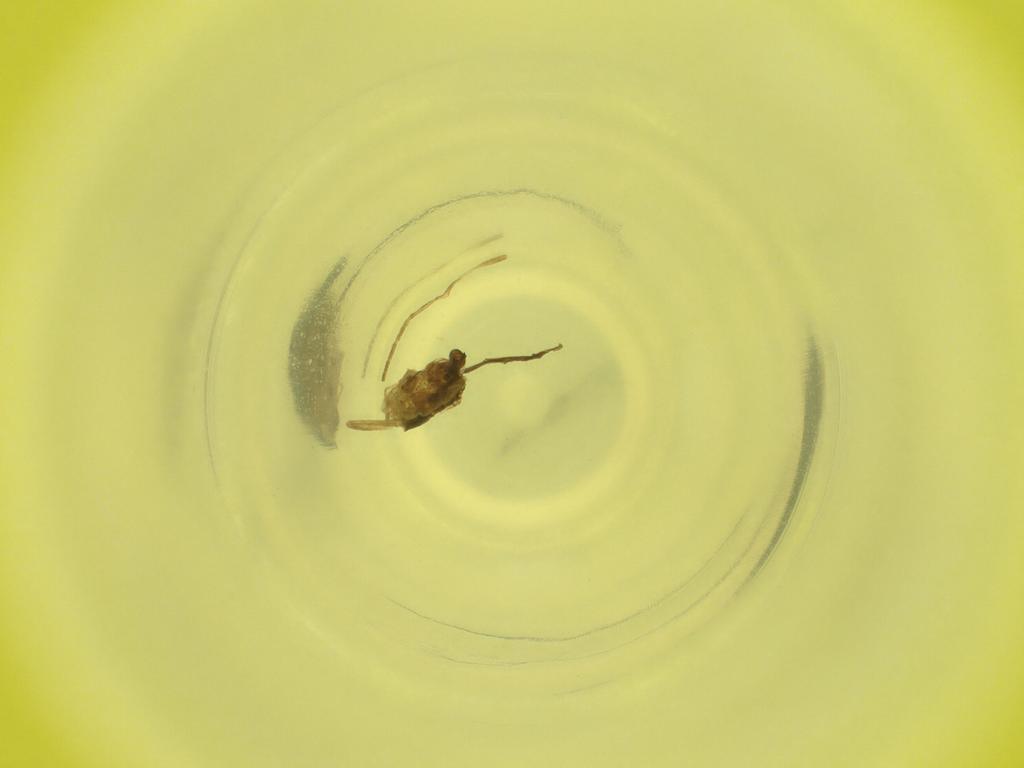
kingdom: Animalia
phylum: Arthropoda
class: Insecta
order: Diptera
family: Cecidomyiidae
